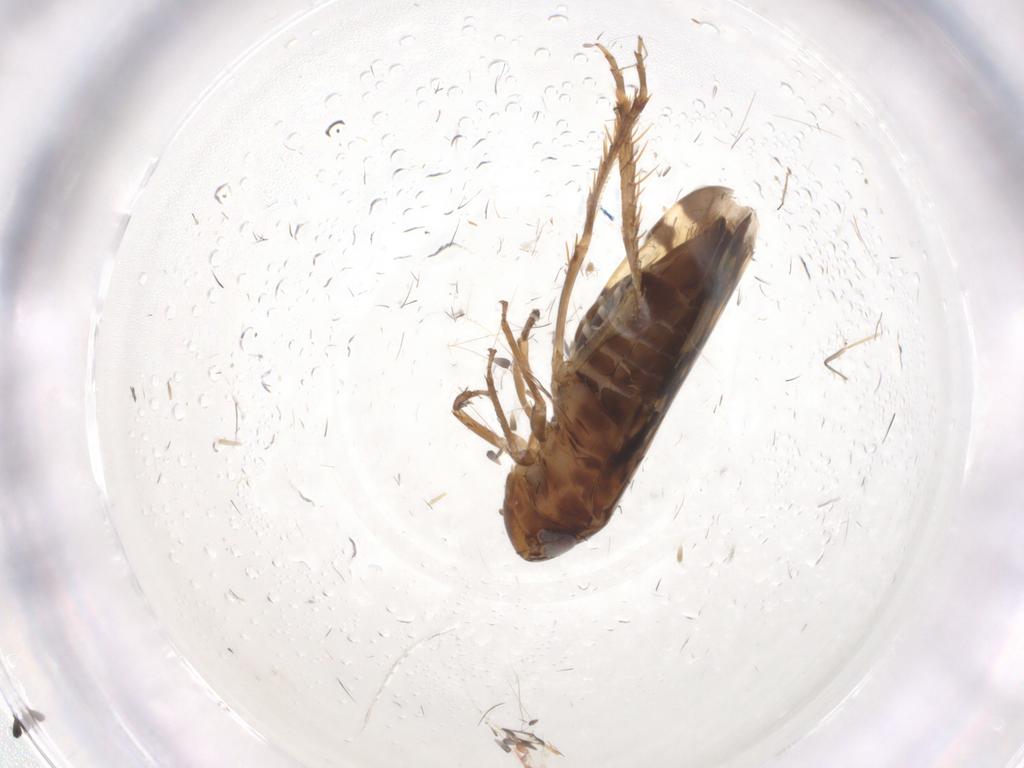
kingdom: Animalia
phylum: Arthropoda
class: Insecta
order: Hemiptera
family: Cicadellidae
